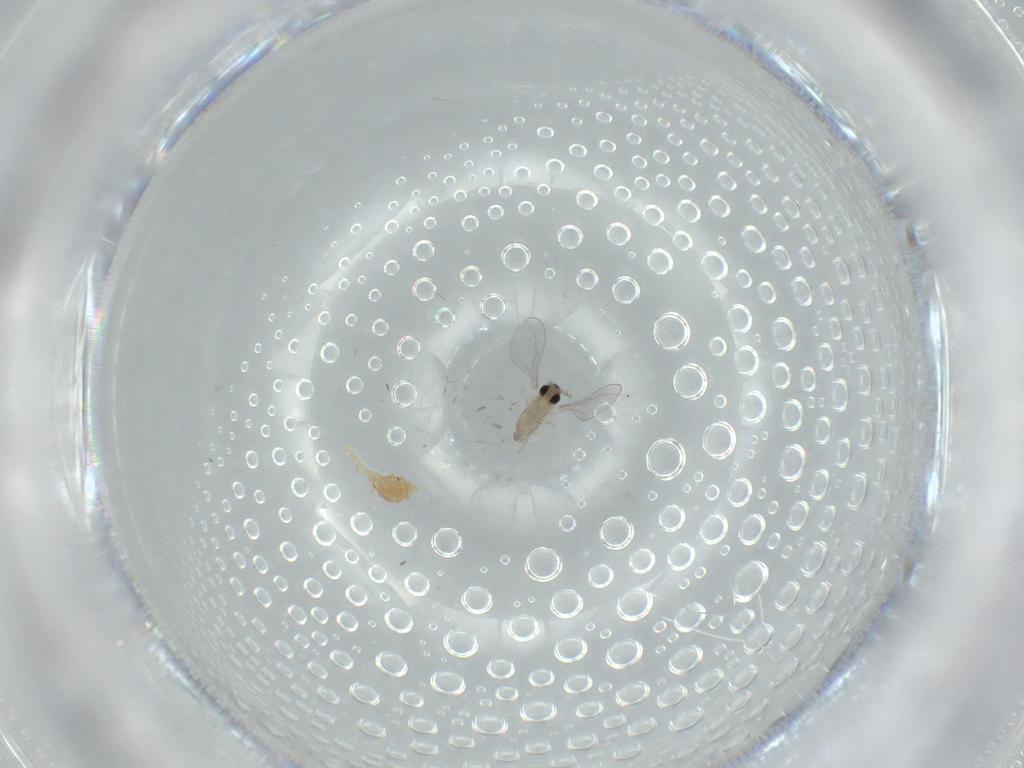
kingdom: Animalia
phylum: Arthropoda
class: Insecta
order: Diptera
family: Cecidomyiidae
